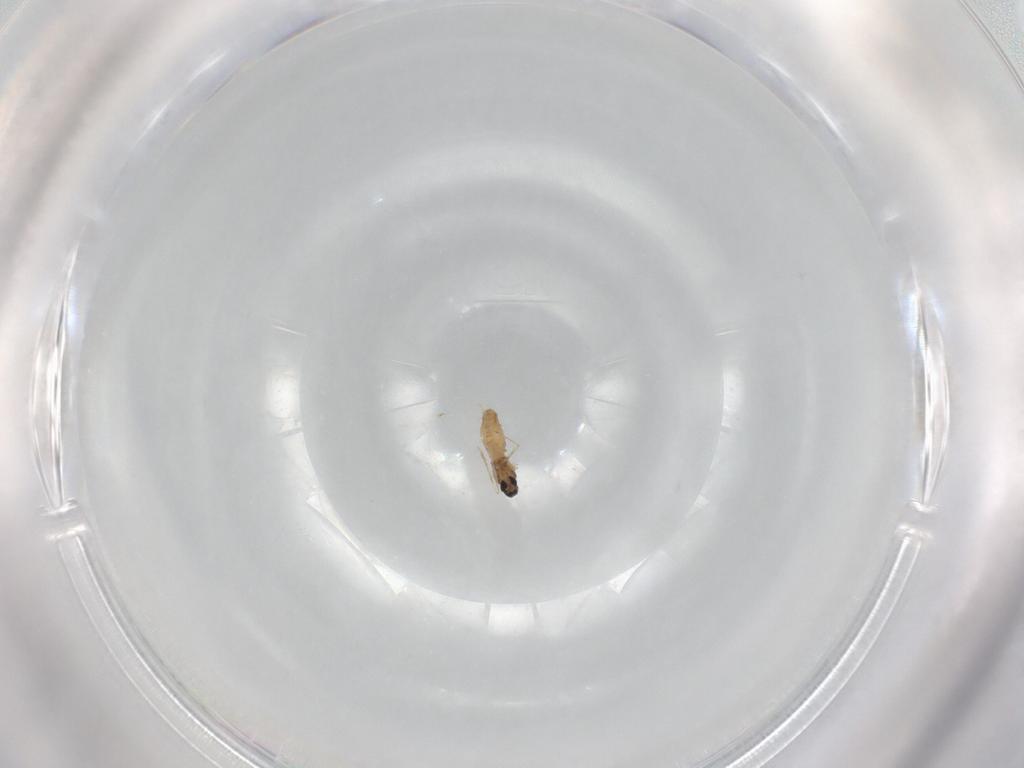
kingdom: Animalia
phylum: Arthropoda
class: Insecta
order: Diptera
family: Cecidomyiidae
